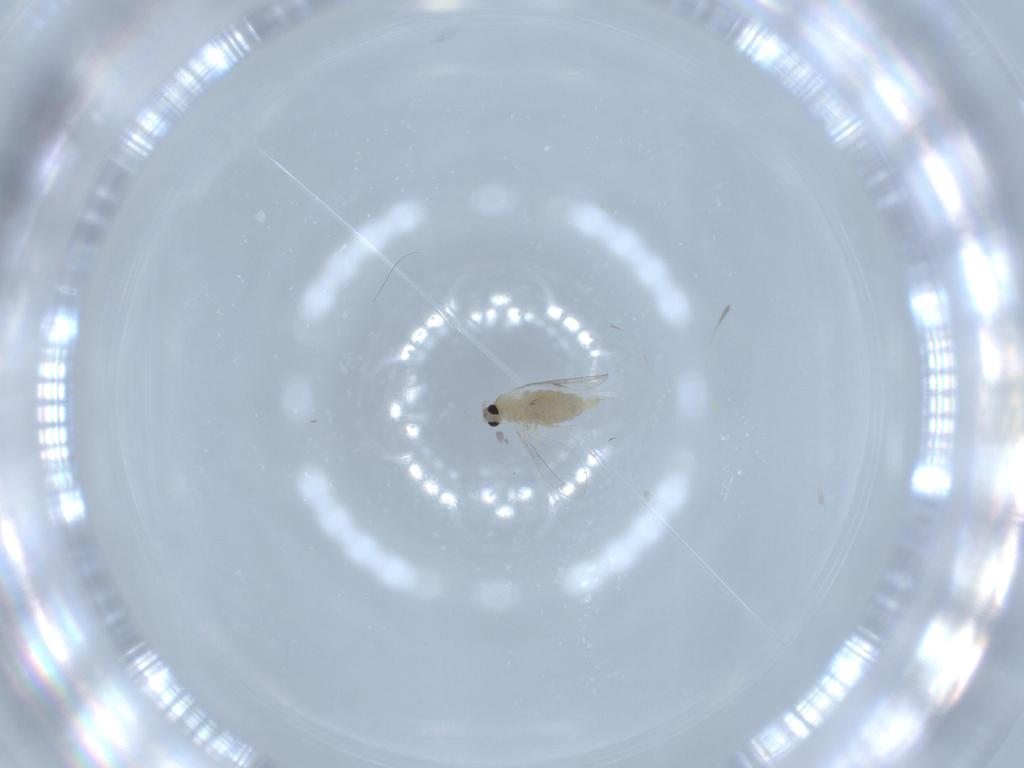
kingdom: Animalia
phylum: Arthropoda
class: Insecta
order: Diptera
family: Cecidomyiidae
